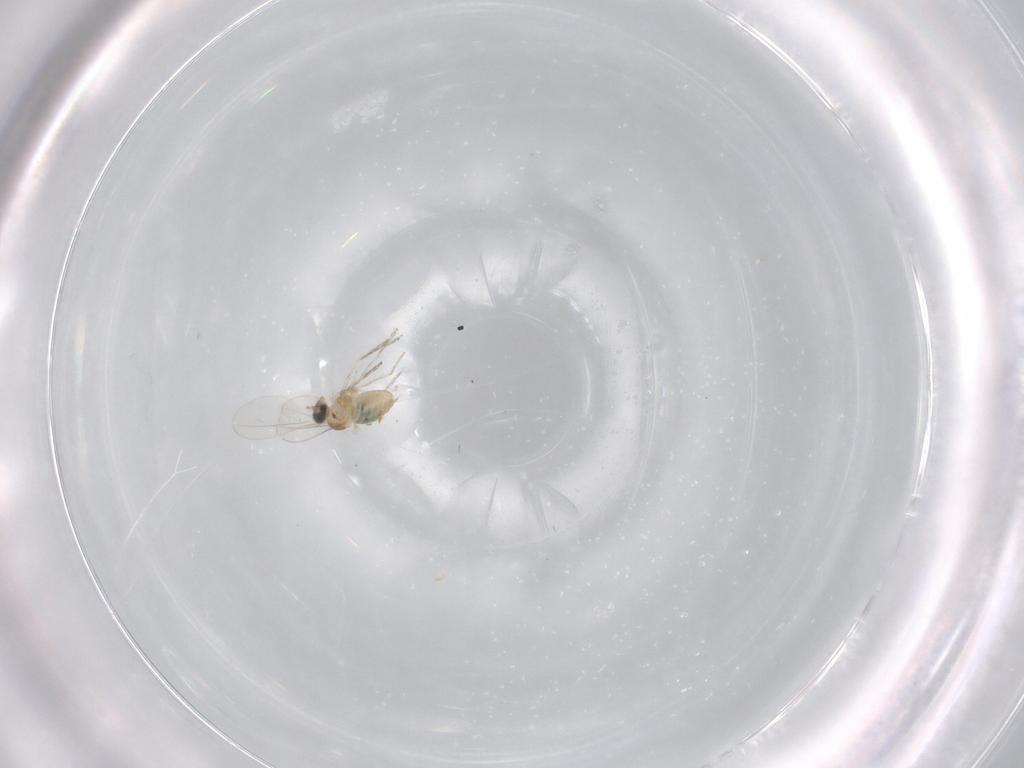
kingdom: Animalia
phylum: Arthropoda
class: Insecta
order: Diptera
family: Cecidomyiidae
